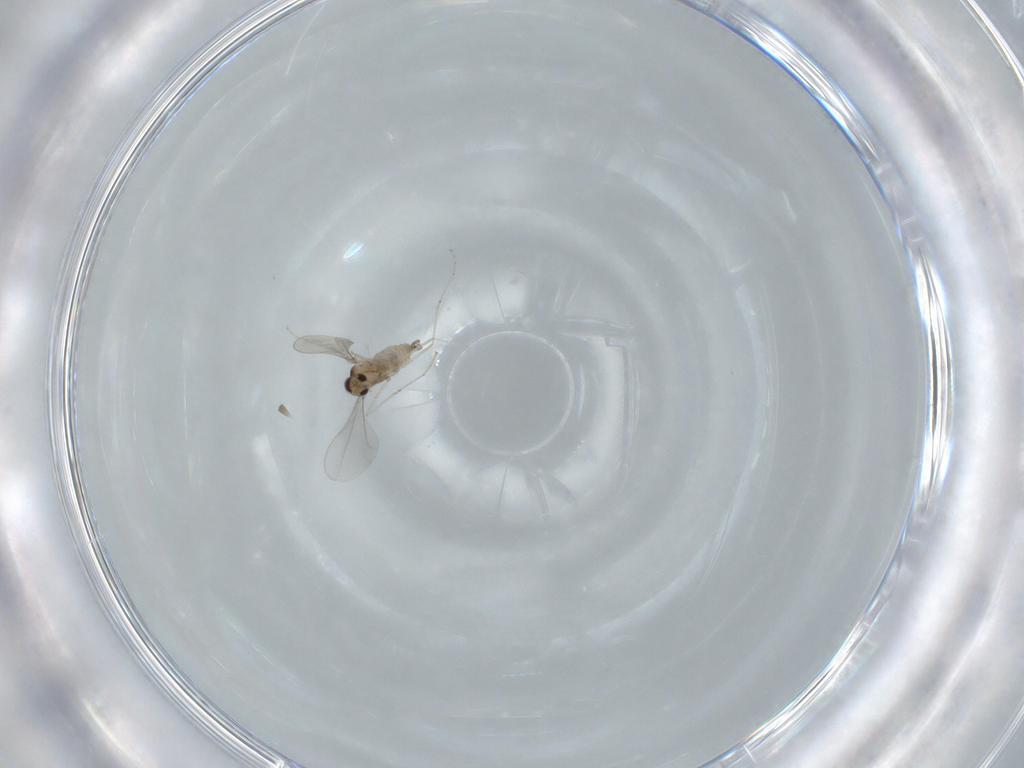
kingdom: Animalia
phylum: Arthropoda
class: Insecta
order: Diptera
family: Cecidomyiidae
